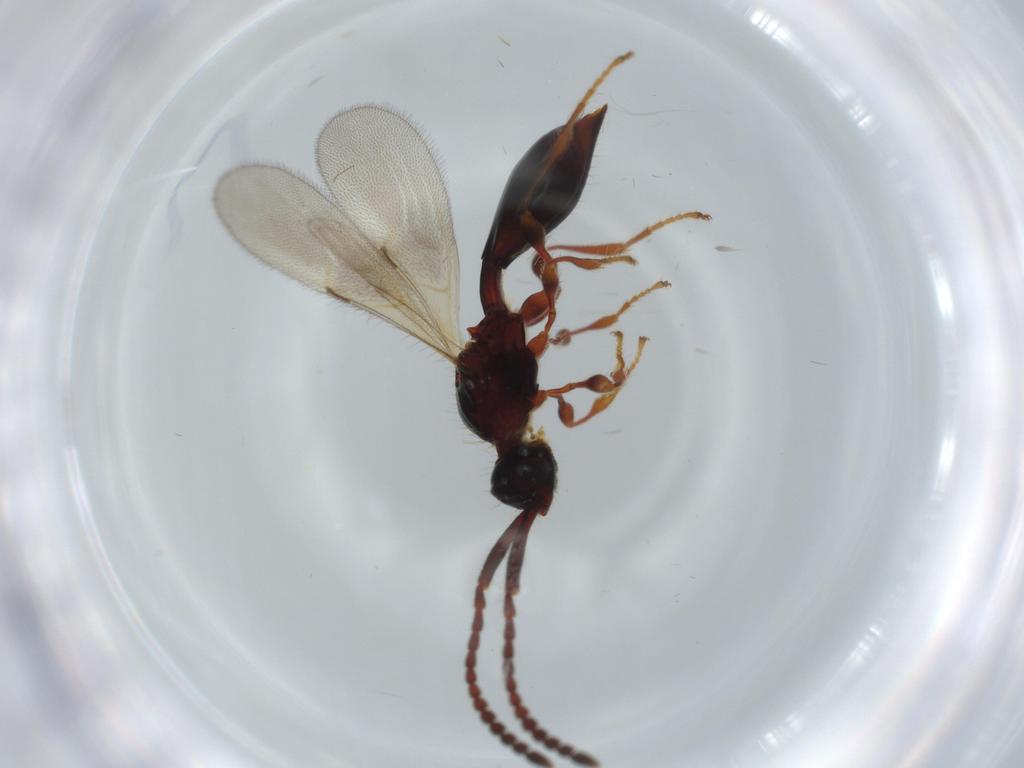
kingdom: Animalia
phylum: Arthropoda
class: Insecta
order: Hymenoptera
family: Diapriidae
